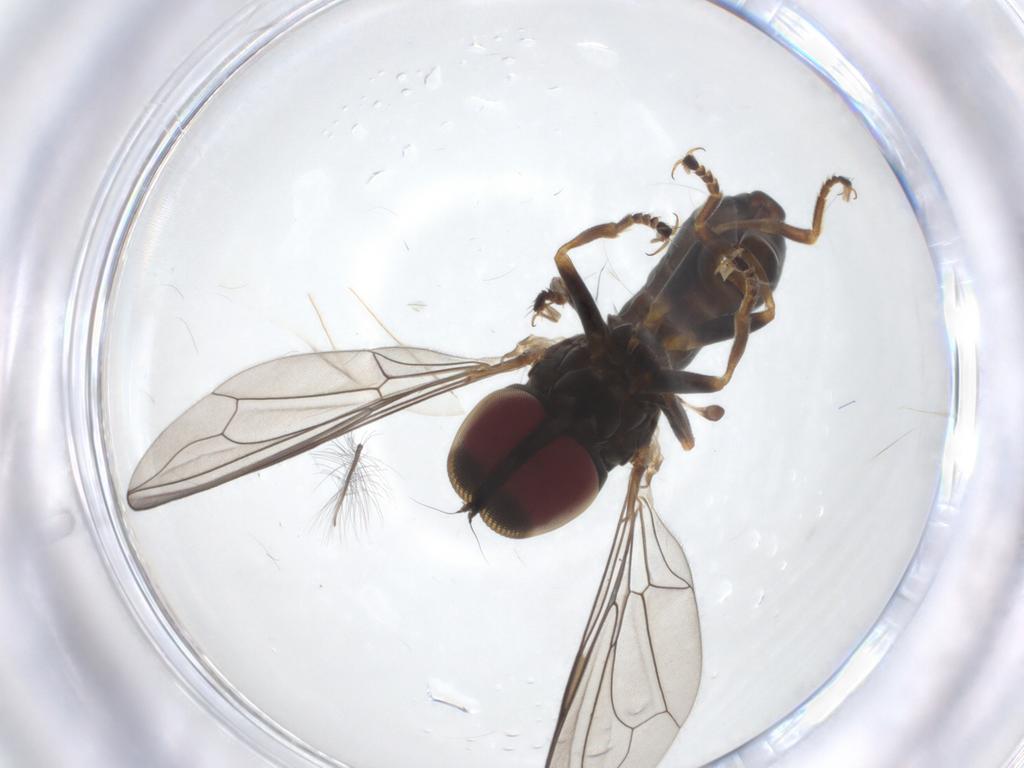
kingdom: Animalia
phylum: Arthropoda
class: Insecta
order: Diptera
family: Pipunculidae
